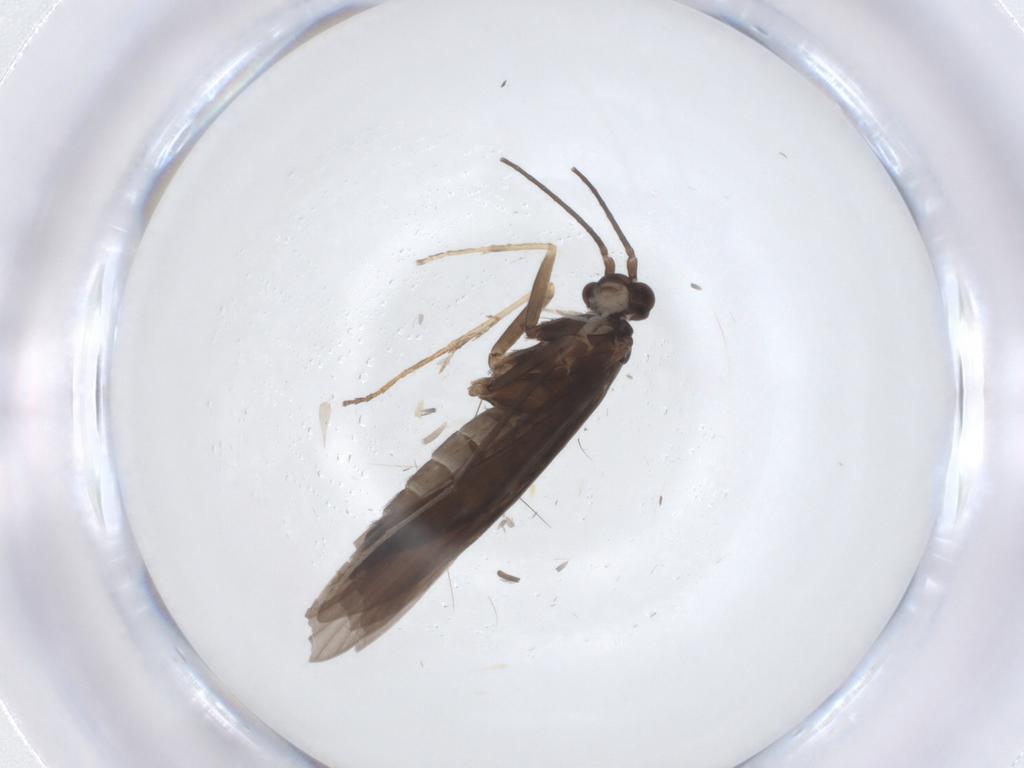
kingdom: Animalia
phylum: Arthropoda
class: Insecta
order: Trichoptera
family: Xiphocentronidae
